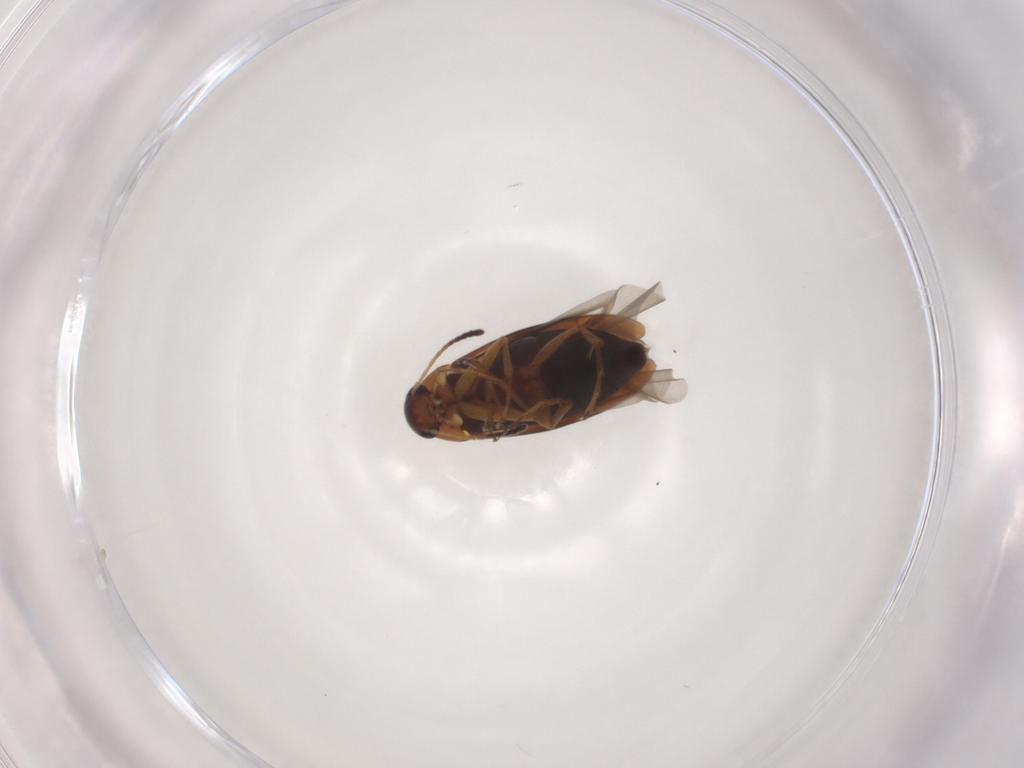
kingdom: Animalia
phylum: Arthropoda
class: Insecta
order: Coleoptera
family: Scraptiidae
